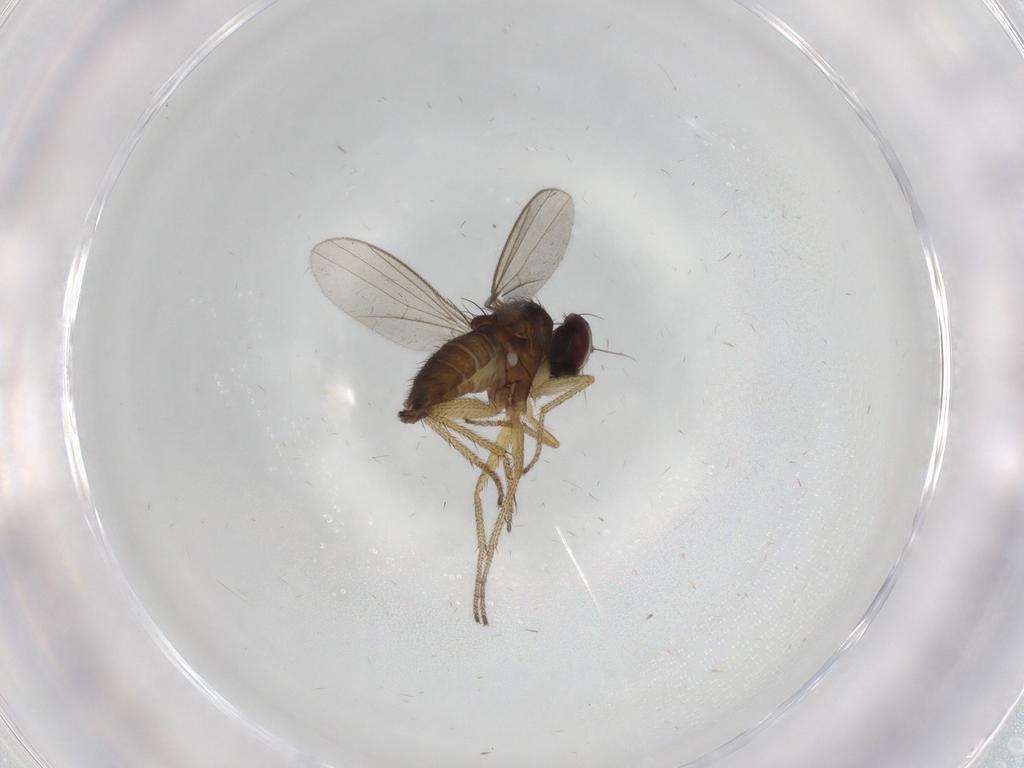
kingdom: Animalia
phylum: Arthropoda
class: Insecta
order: Diptera
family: Dolichopodidae
